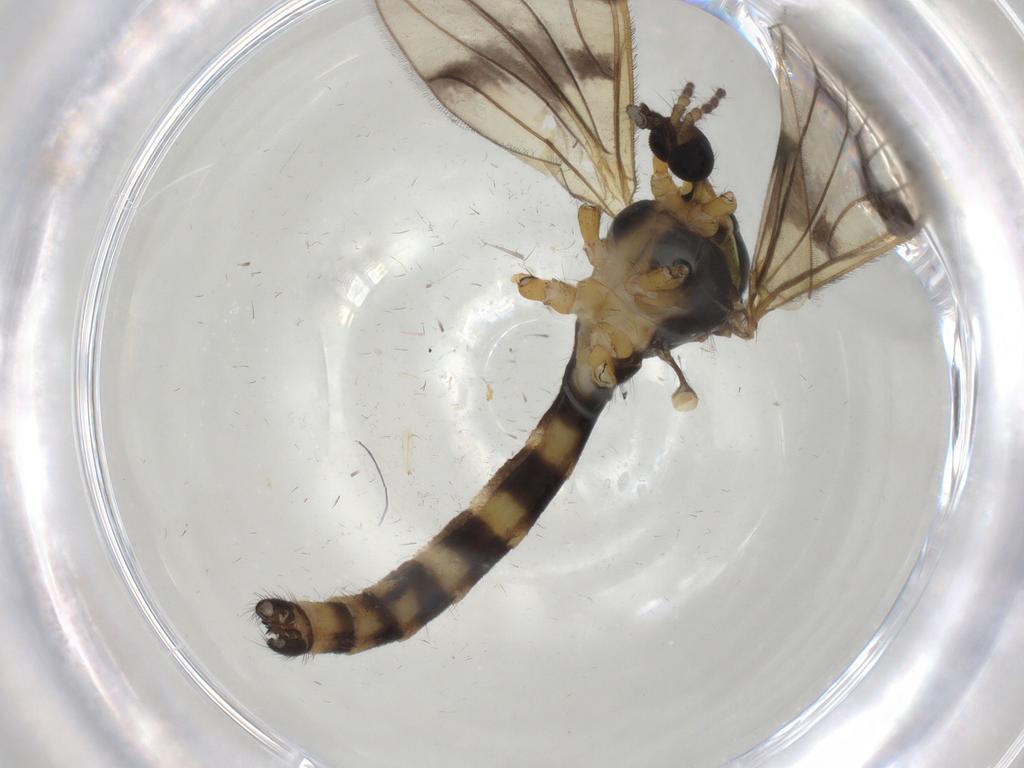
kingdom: Animalia
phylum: Arthropoda
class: Insecta
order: Diptera
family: Limoniidae
